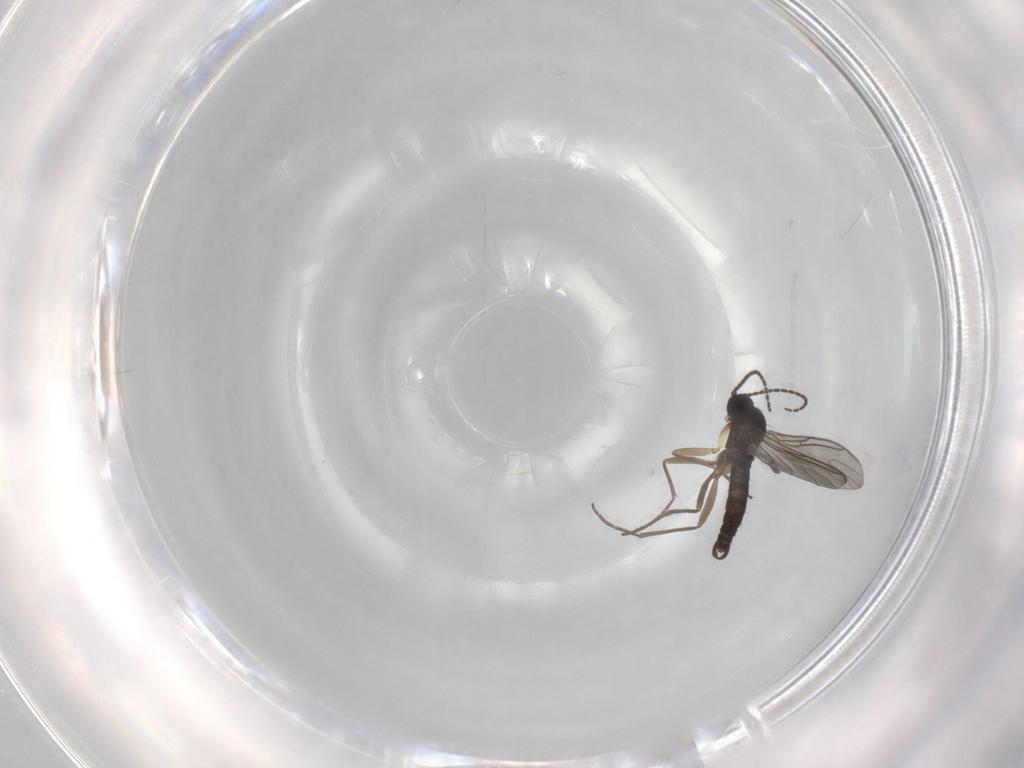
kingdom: Animalia
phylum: Arthropoda
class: Insecta
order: Diptera
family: Sciaridae
